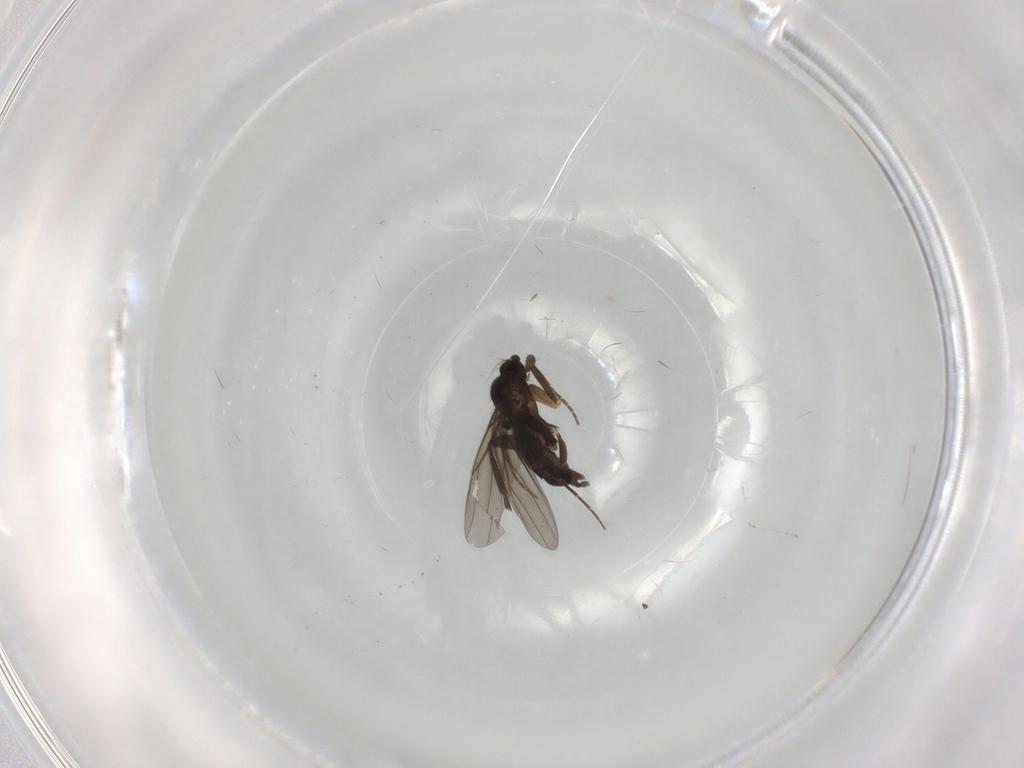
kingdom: Animalia
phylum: Arthropoda
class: Insecta
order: Diptera
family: Cecidomyiidae
